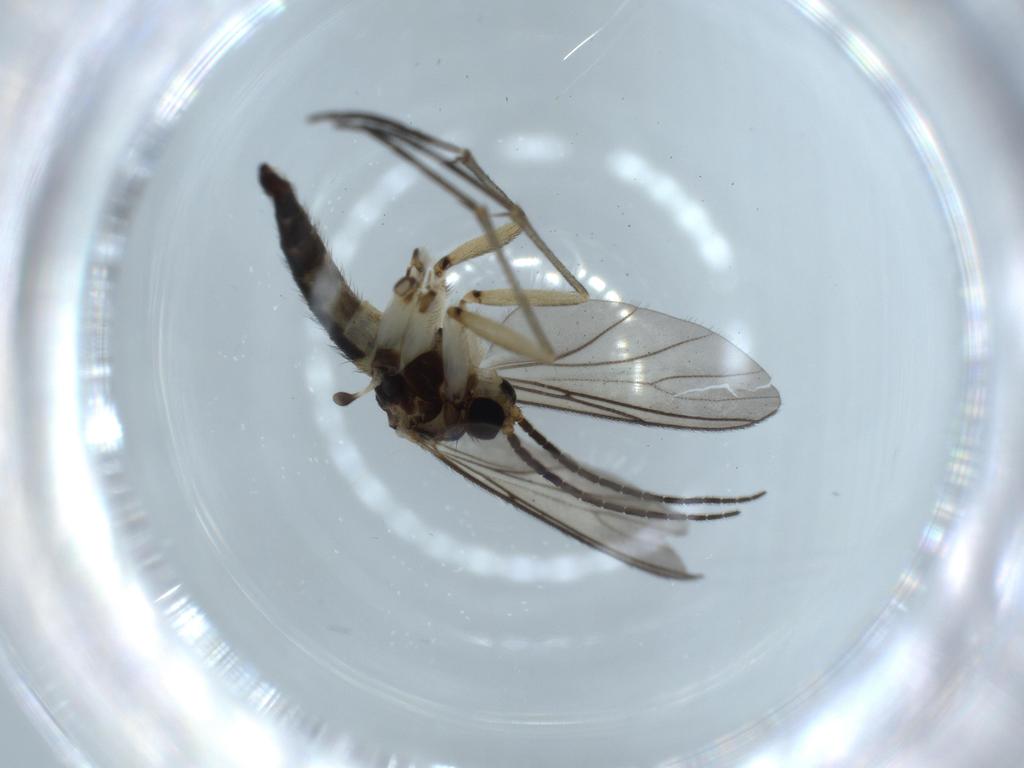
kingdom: Animalia
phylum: Arthropoda
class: Insecta
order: Diptera
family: Sciaridae
